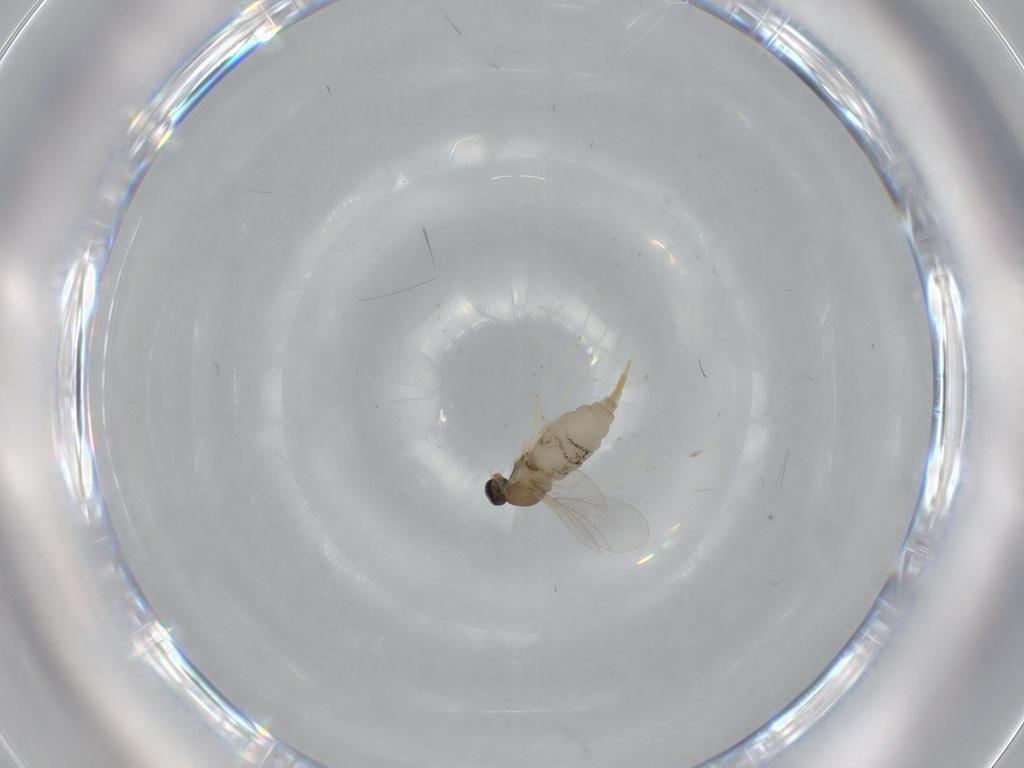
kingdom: Animalia
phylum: Arthropoda
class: Insecta
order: Diptera
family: Cecidomyiidae
